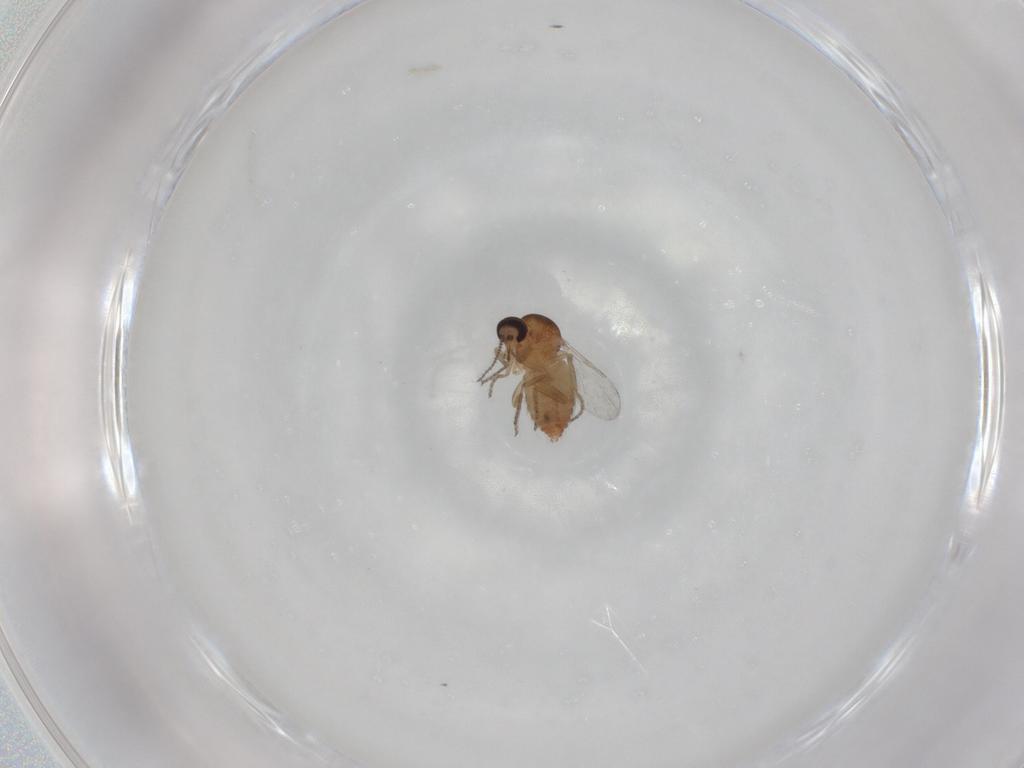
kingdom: Animalia
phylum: Arthropoda
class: Insecta
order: Diptera
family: Ceratopogonidae
